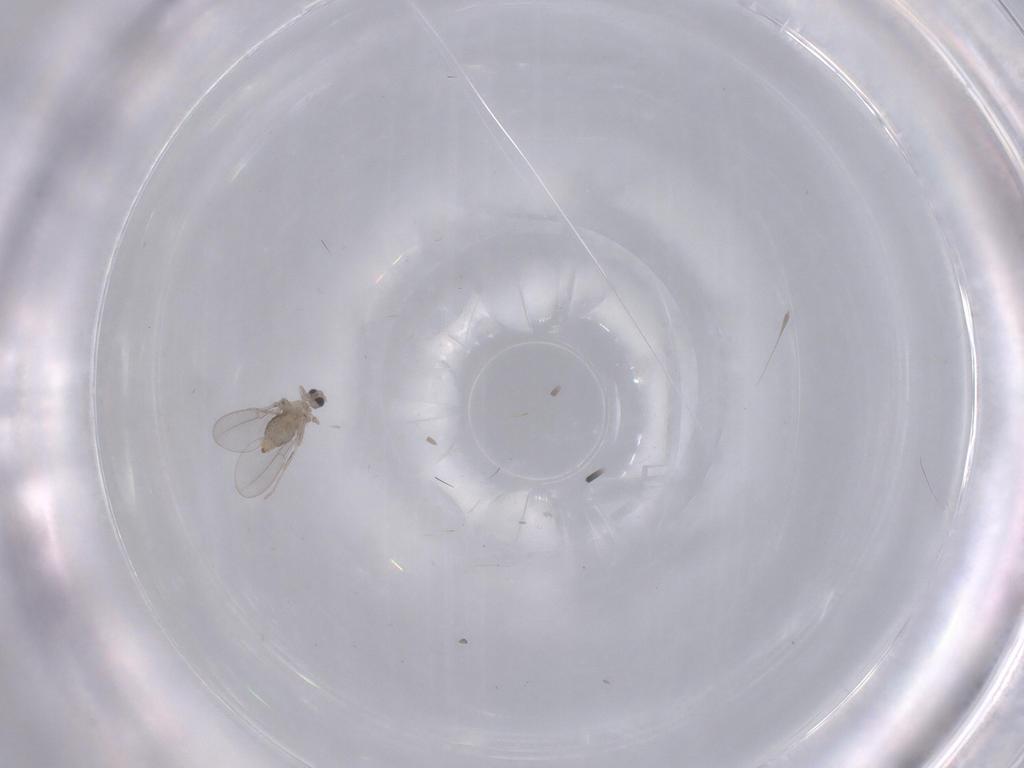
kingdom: Animalia
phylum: Arthropoda
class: Insecta
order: Diptera
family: Cecidomyiidae
